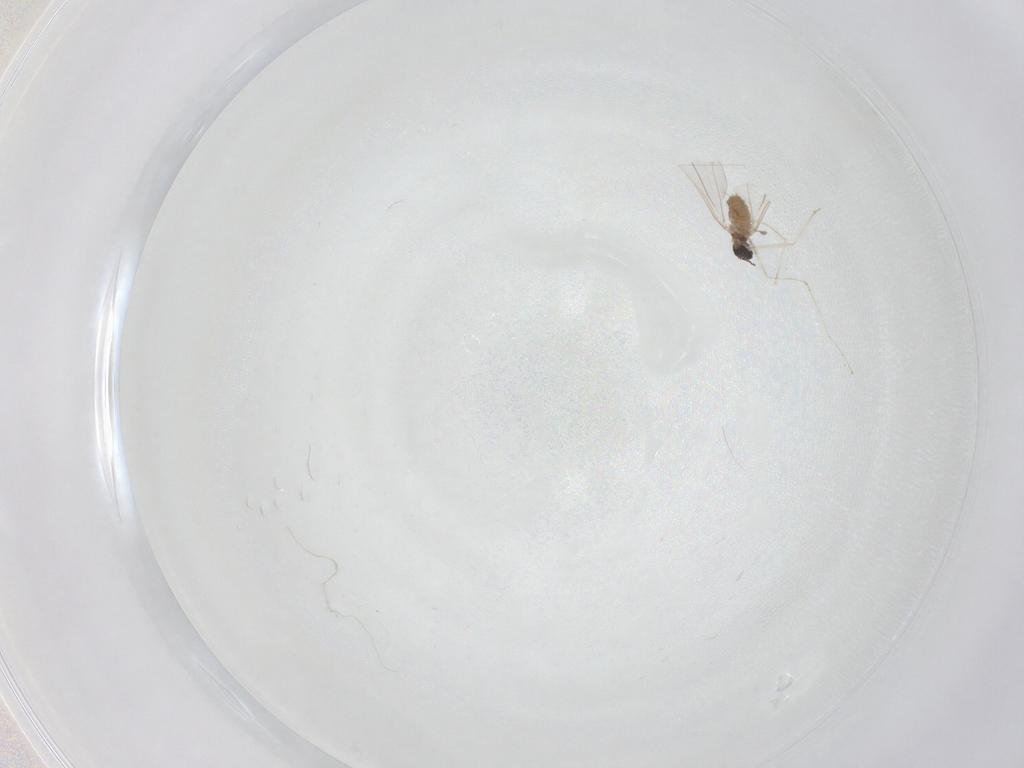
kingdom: Animalia
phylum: Arthropoda
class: Insecta
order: Diptera
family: Cecidomyiidae
